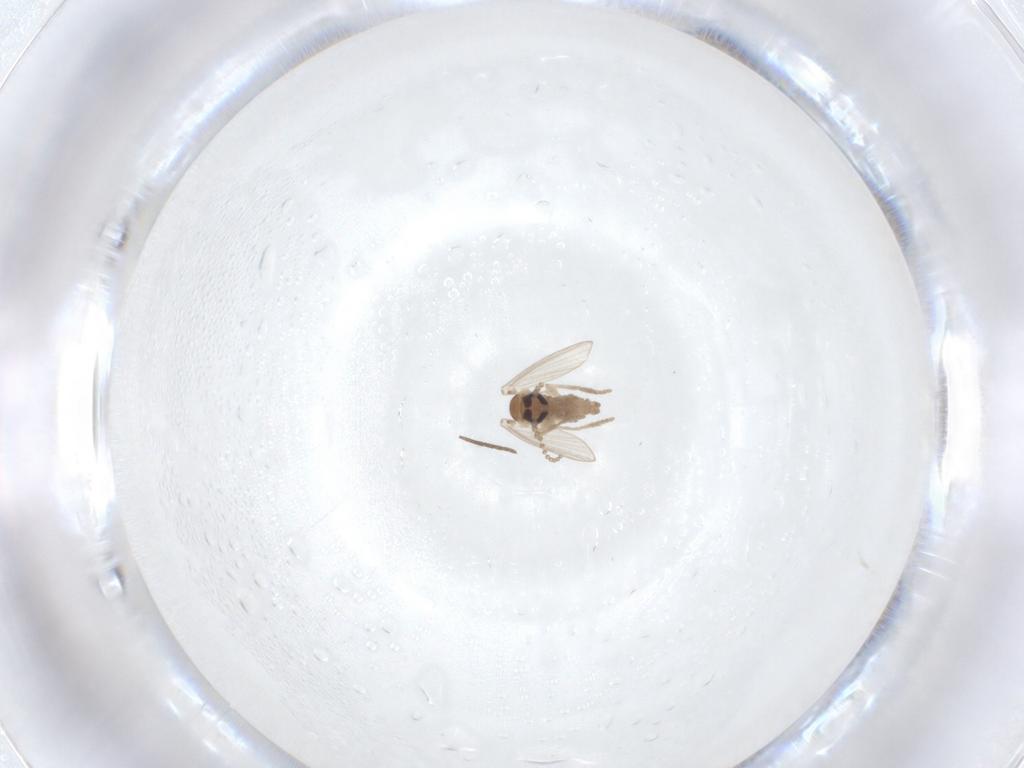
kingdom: Animalia
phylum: Arthropoda
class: Insecta
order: Diptera
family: Psychodidae
